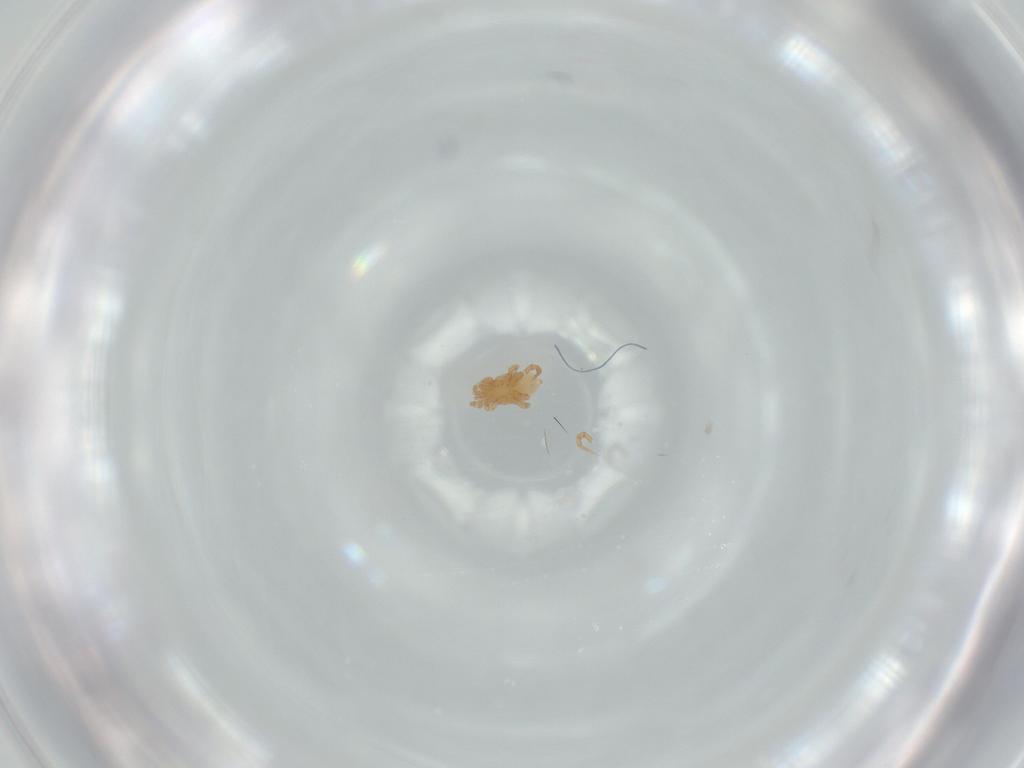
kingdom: Animalia
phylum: Arthropoda
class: Arachnida
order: Mesostigmata
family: Parasitidae
